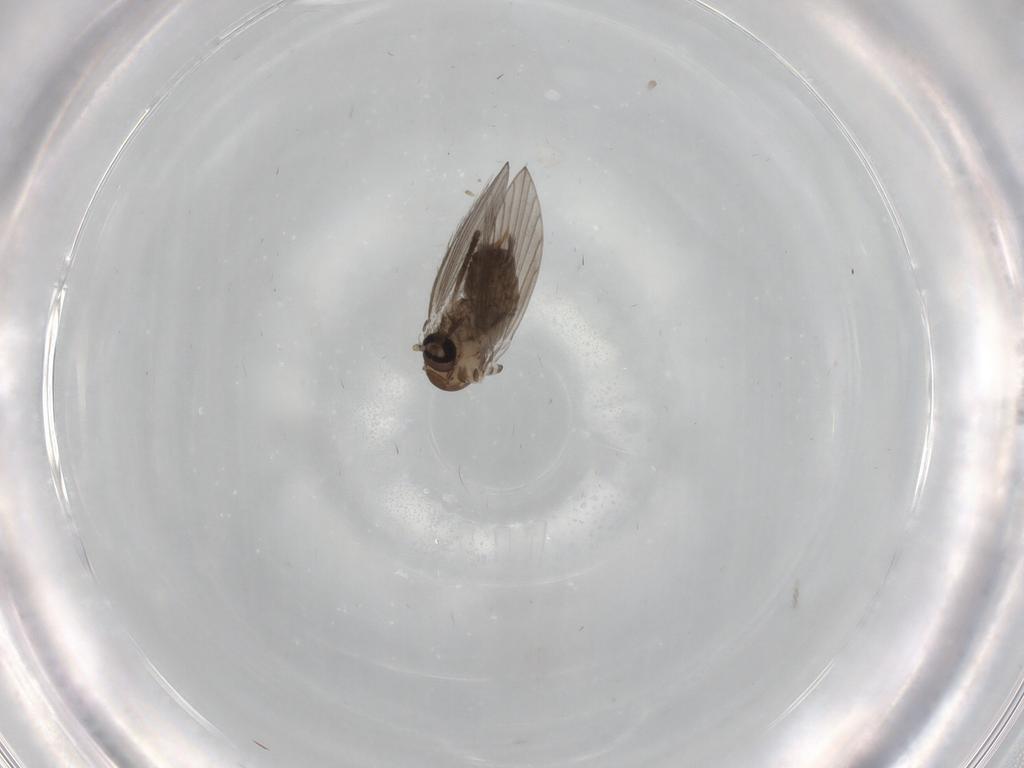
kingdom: Animalia
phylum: Arthropoda
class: Insecta
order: Diptera
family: Psychodidae
